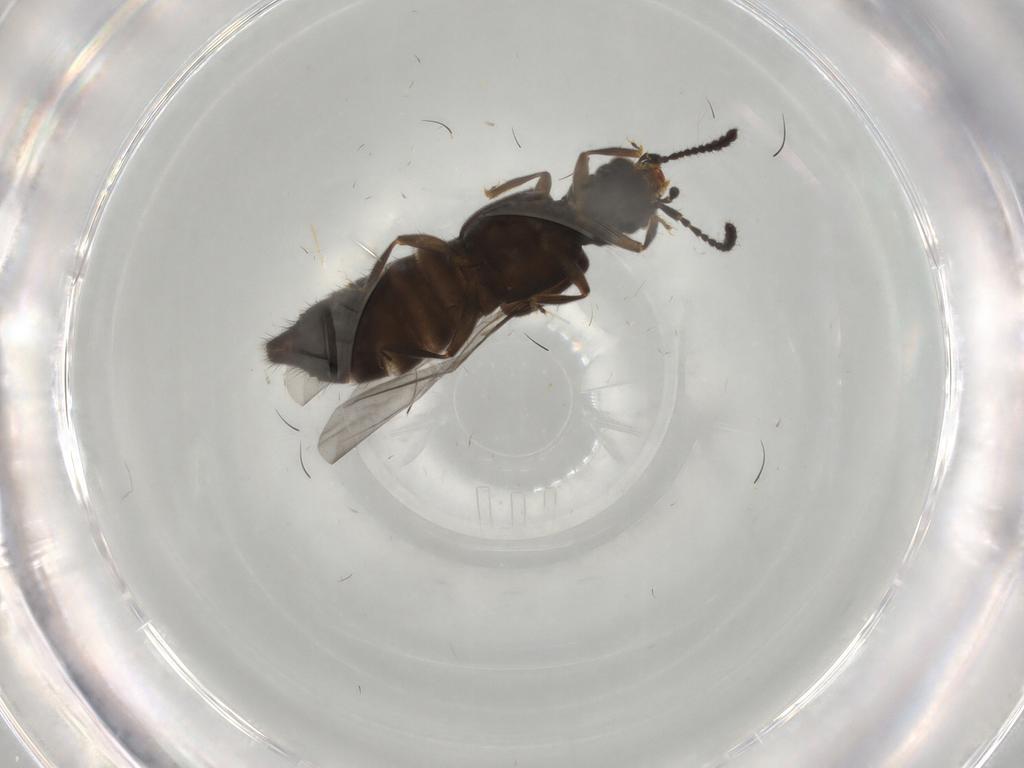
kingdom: Animalia
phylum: Arthropoda
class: Insecta
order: Coleoptera
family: Staphylinidae
